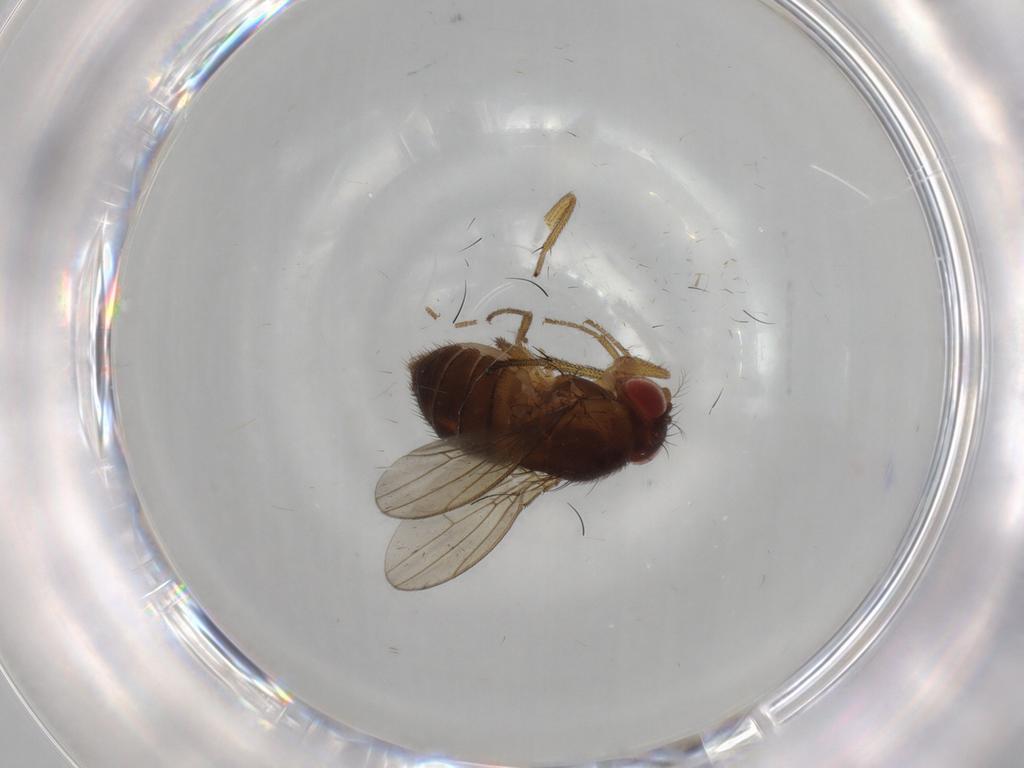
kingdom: Animalia
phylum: Arthropoda
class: Insecta
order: Diptera
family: Drosophilidae
